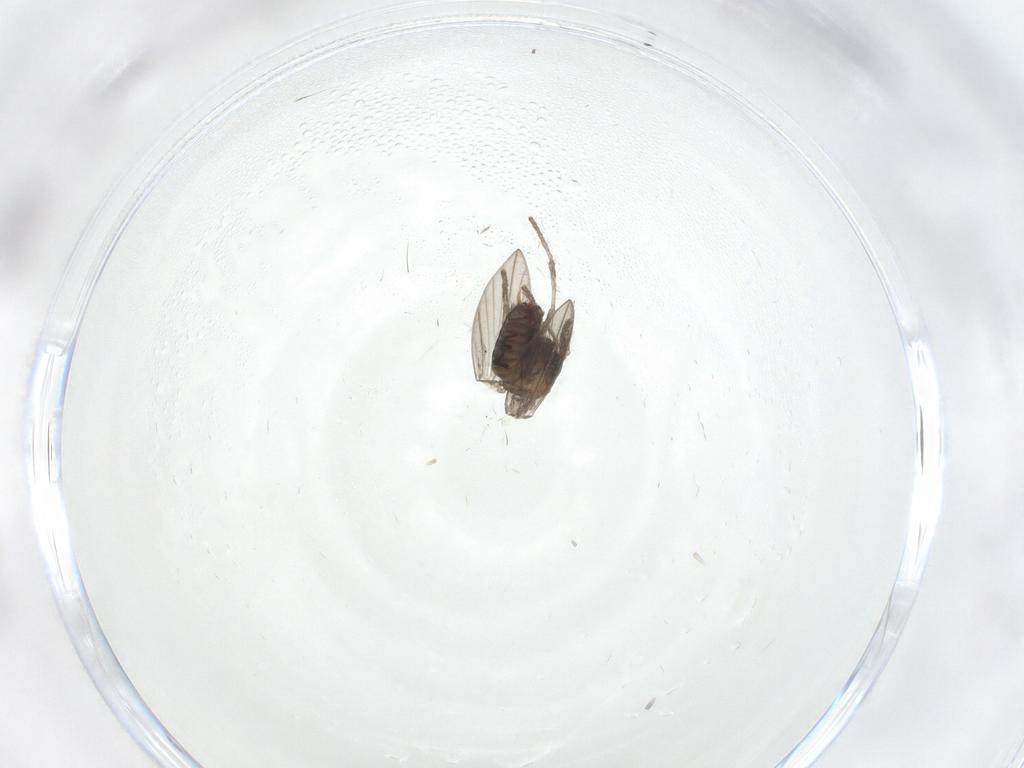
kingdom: Animalia
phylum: Arthropoda
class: Insecta
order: Diptera
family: Psychodidae
